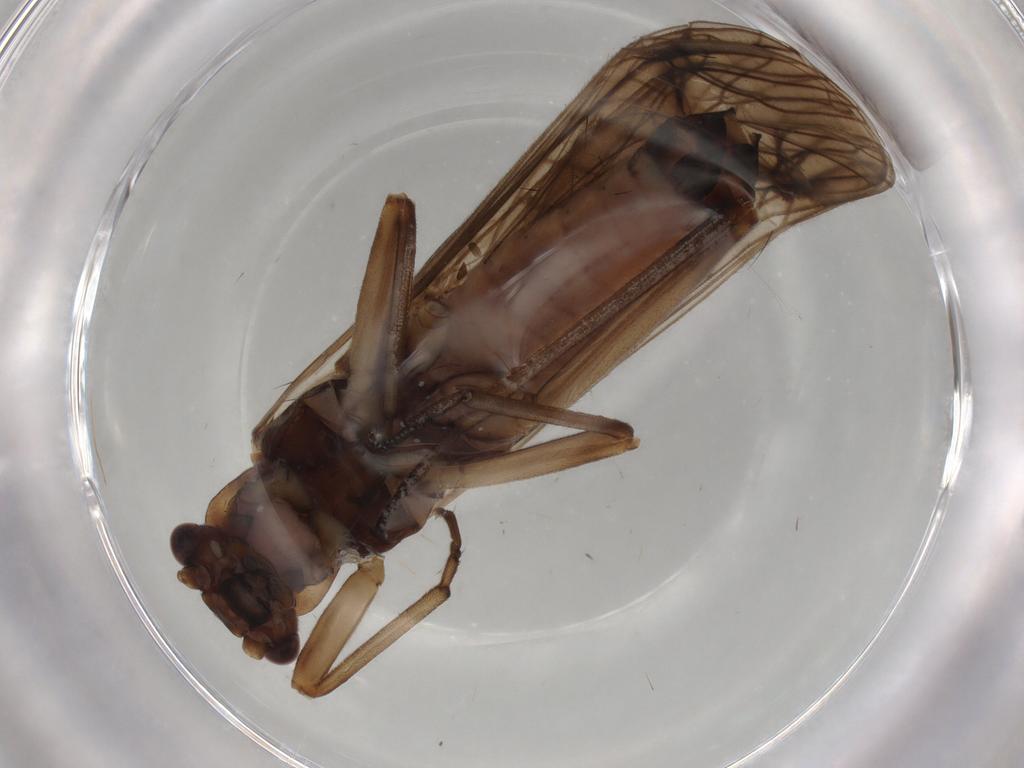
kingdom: Animalia
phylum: Arthropoda
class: Insecta
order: Plecoptera
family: Nemouridae
